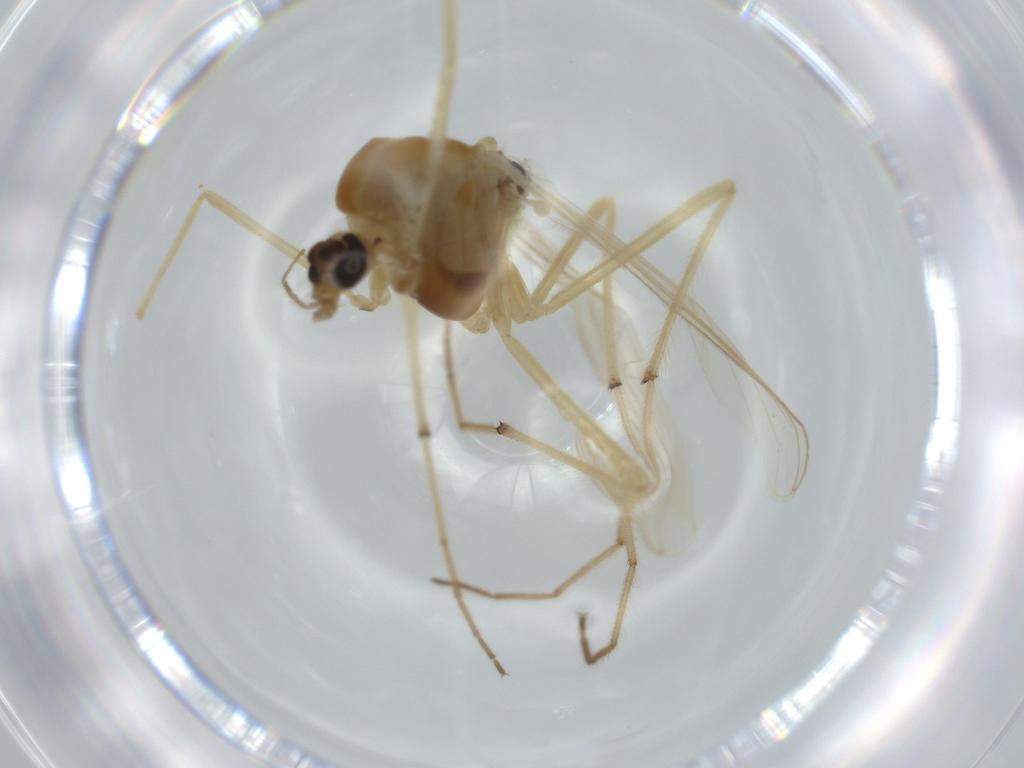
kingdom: Animalia
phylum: Arthropoda
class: Insecta
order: Diptera
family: Chironomidae
